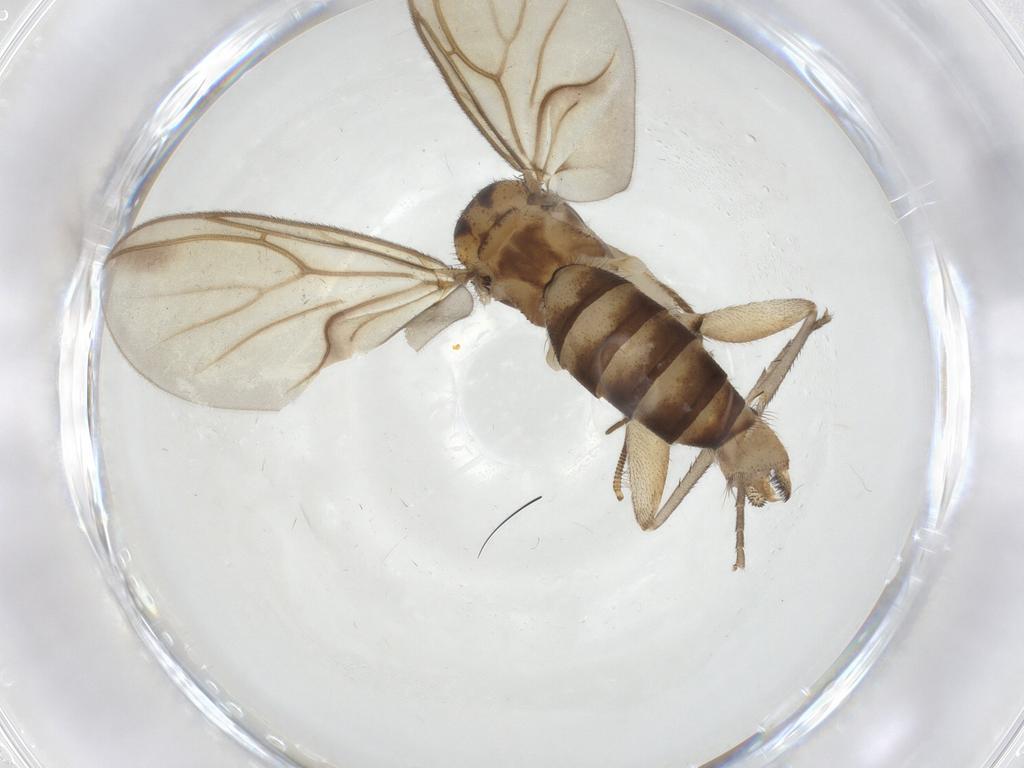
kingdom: Animalia
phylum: Arthropoda
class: Insecta
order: Diptera
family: Mycetophilidae
